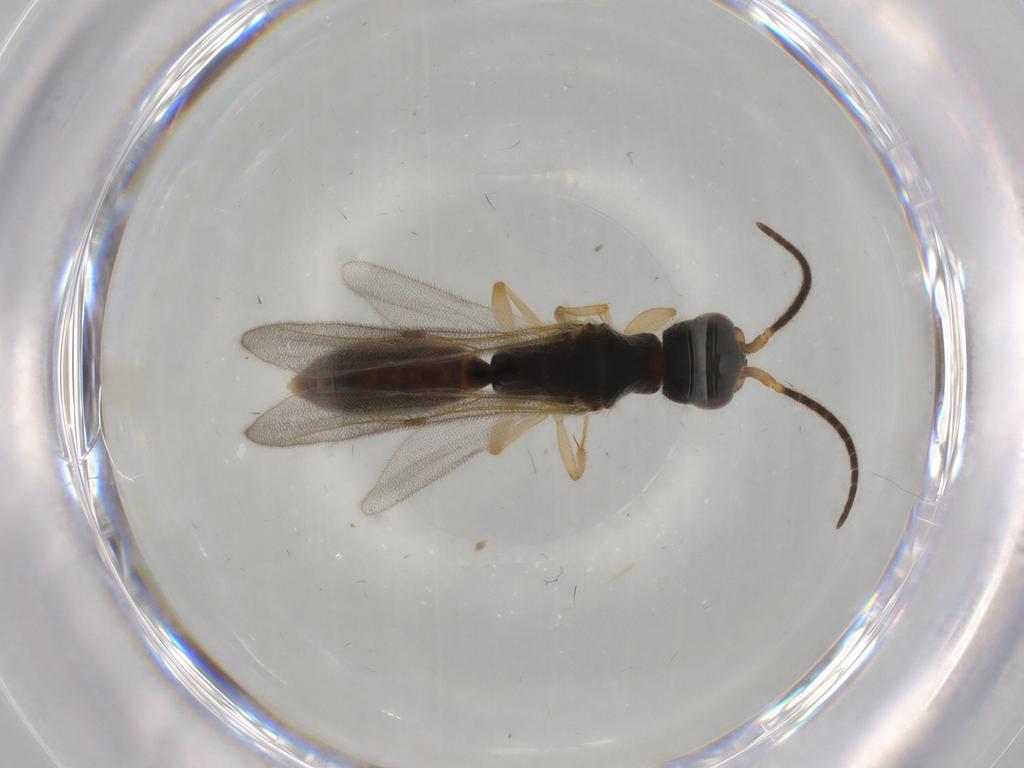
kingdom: Animalia
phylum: Arthropoda
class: Insecta
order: Hymenoptera
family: Bethylidae
